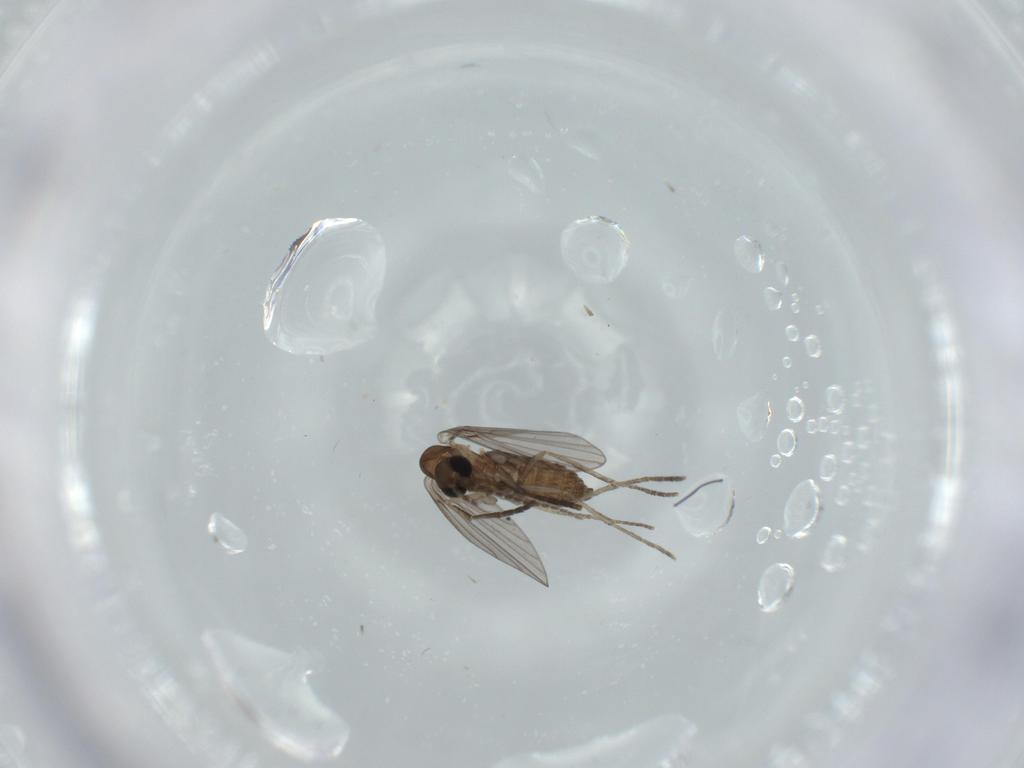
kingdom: Animalia
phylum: Arthropoda
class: Insecta
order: Diptera
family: Psychodidae
